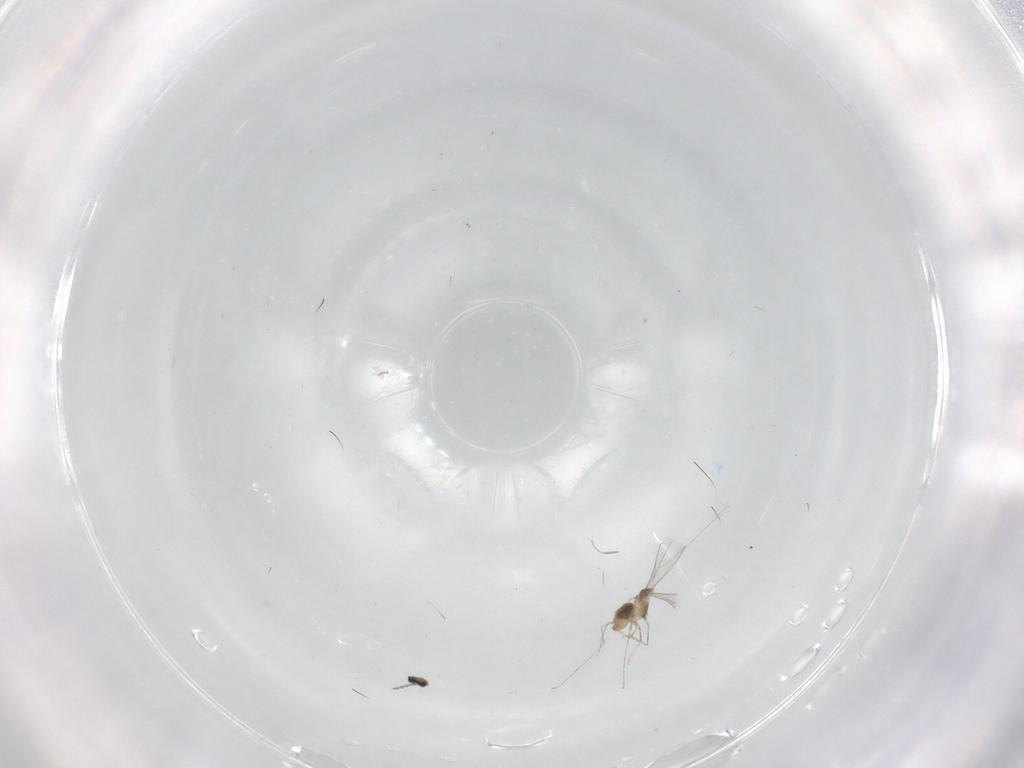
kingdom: Animalia
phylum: Arthropoda
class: Insecta
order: Diptera
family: Cecidomyiidae
